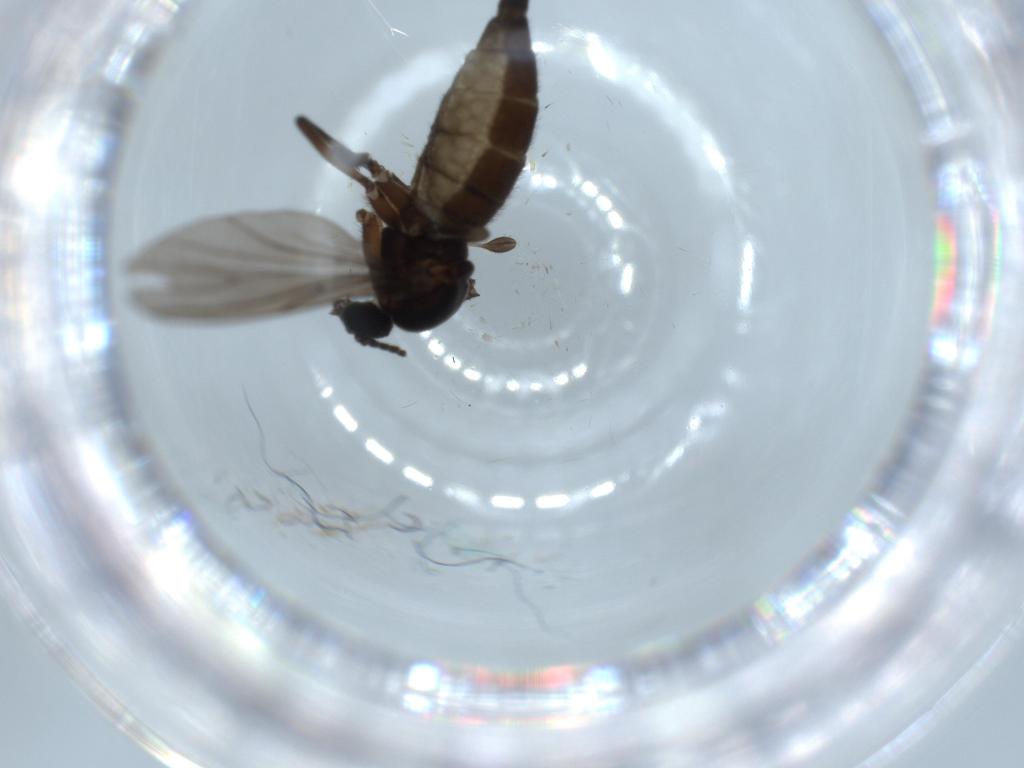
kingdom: Animalia
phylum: Arthropoda
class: Insecta
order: Diptera
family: Sciaridae
